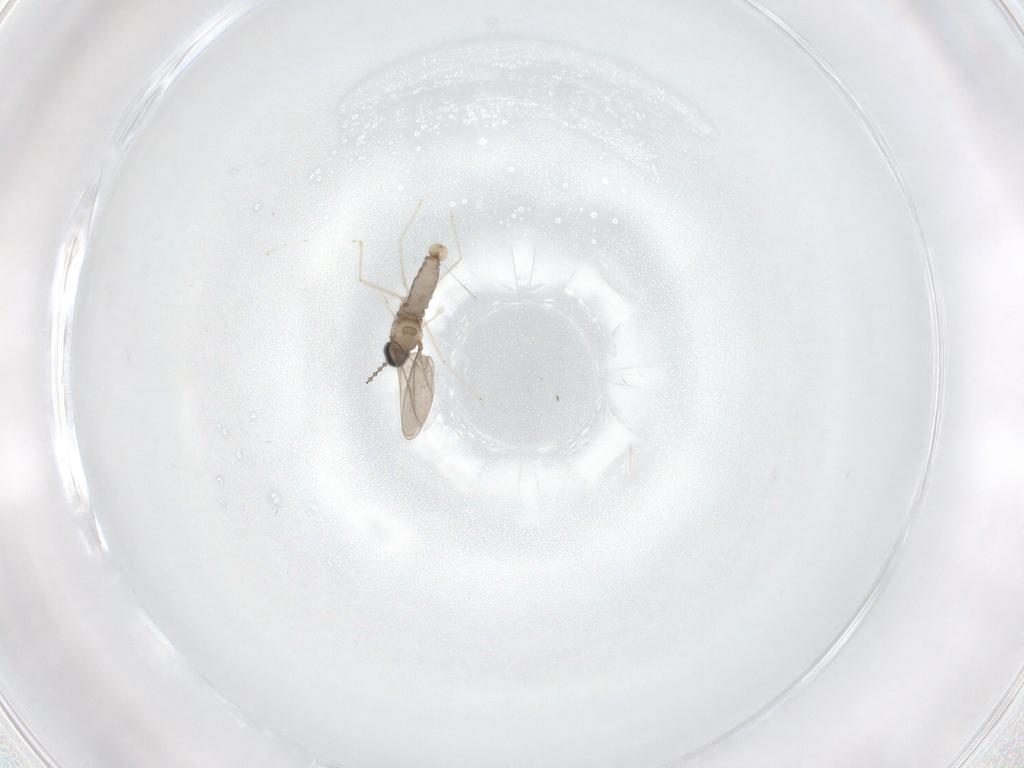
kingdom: Animalia
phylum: Arthropoda
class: Insecta
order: Diptera
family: Cecidomyiidae
